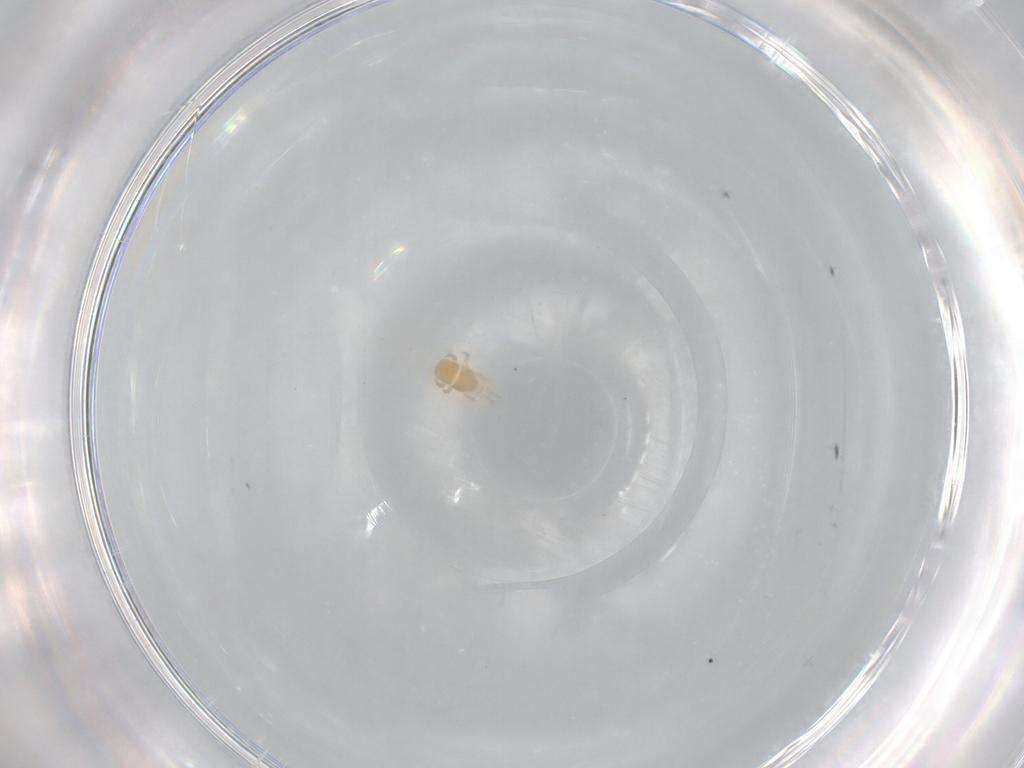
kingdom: Animalia
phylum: Arthropoda
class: Arachnida
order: Mesostigmata
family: Digamasellidae
